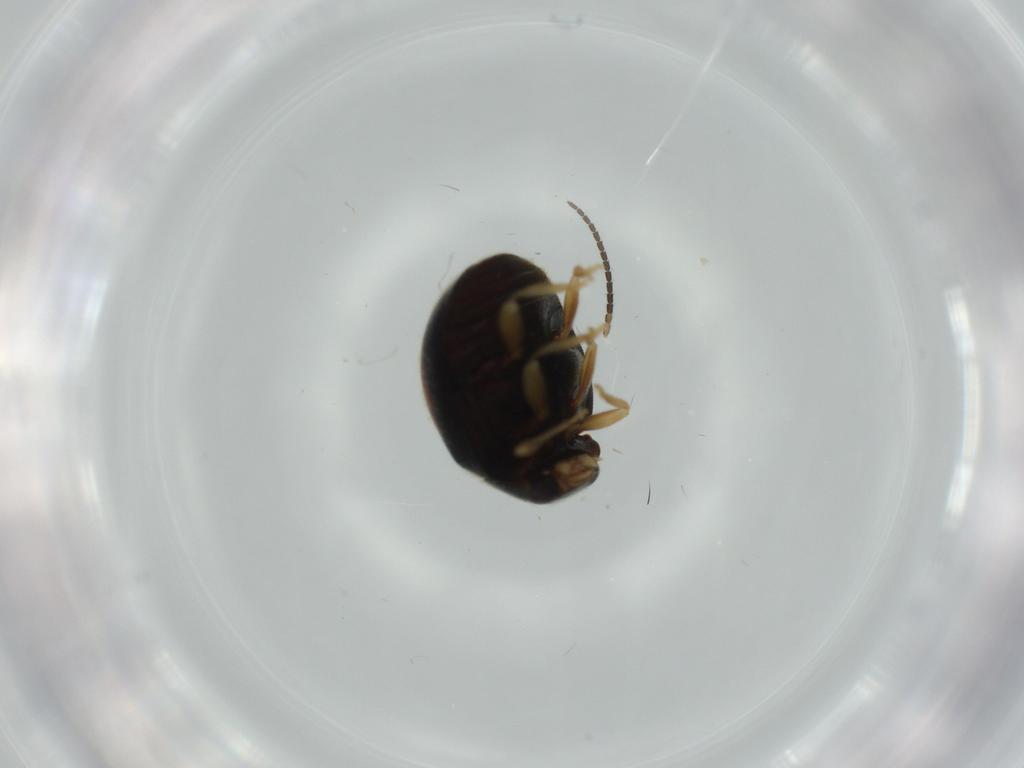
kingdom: Animalia
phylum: Arthropoda
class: Insecta
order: Coleoptera
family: Coccinellidae
